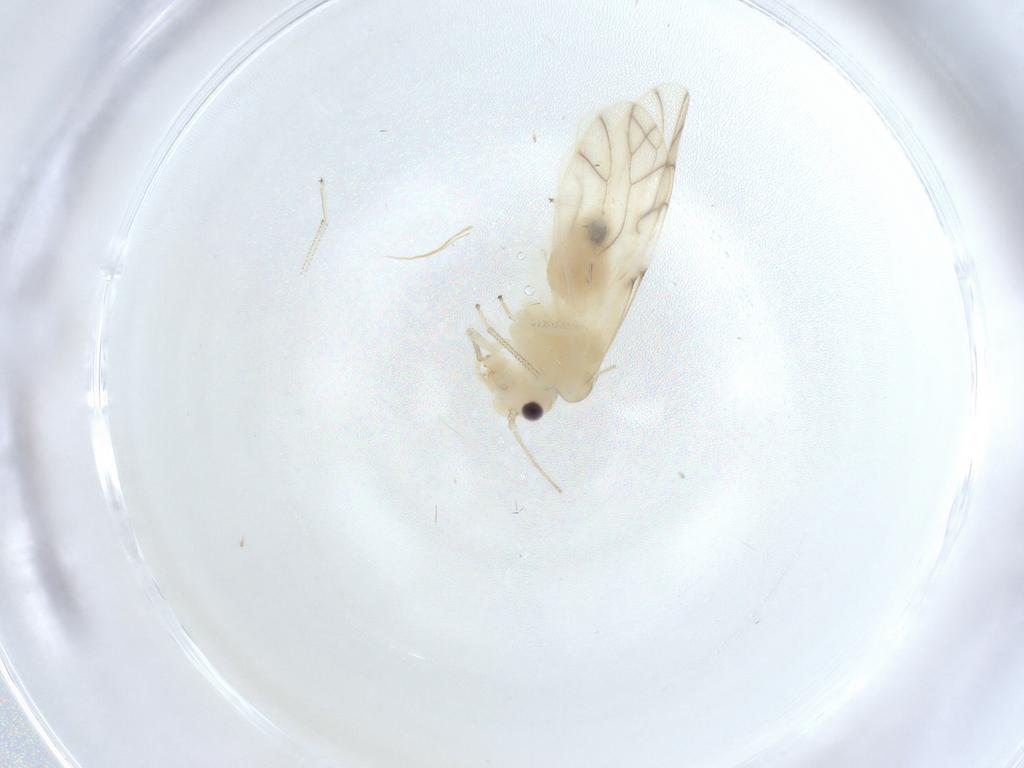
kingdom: Animalia
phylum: Arthropoda
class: Insecta
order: Psocodea
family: Caeciliusidae
